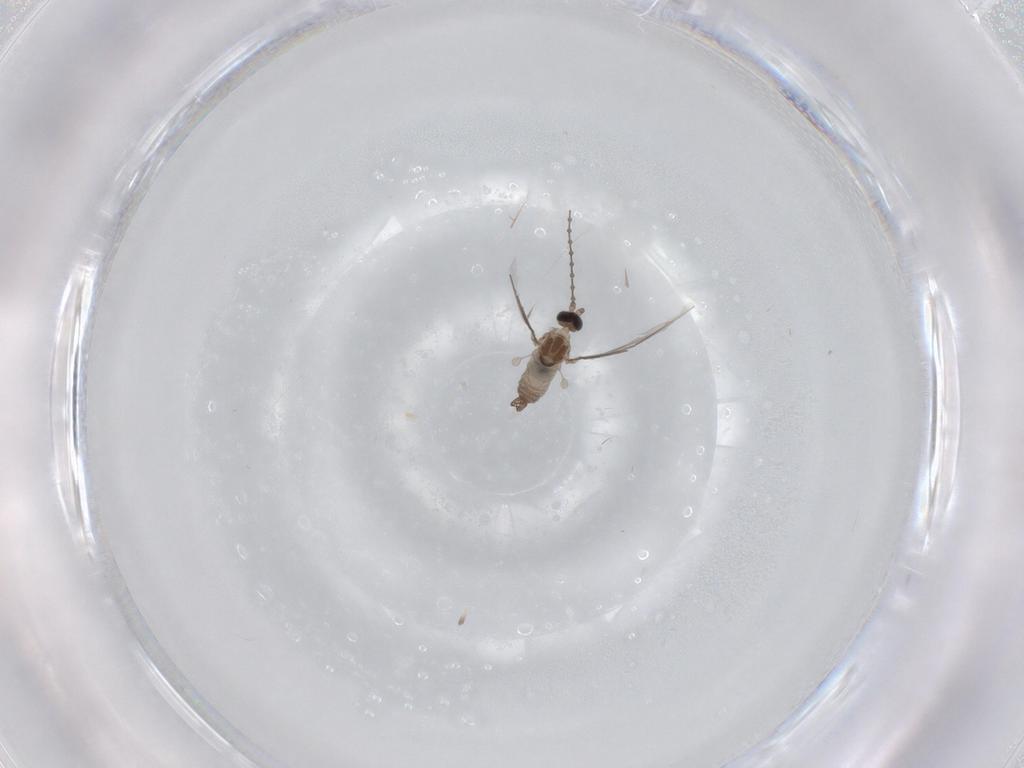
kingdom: Animalia
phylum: Arthropoda
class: Insecta
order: Diptera
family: Cecidomyiidae
